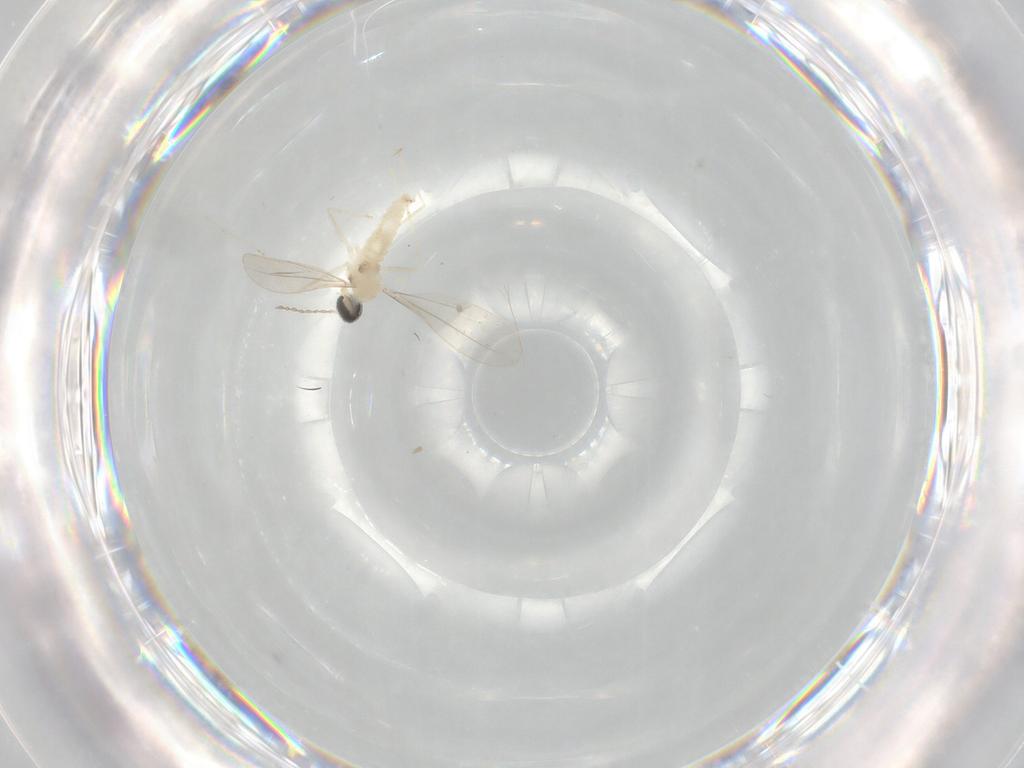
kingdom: Animalia
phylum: Arthropoda
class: Insecta
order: Diptera
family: Cecidomyiidae
